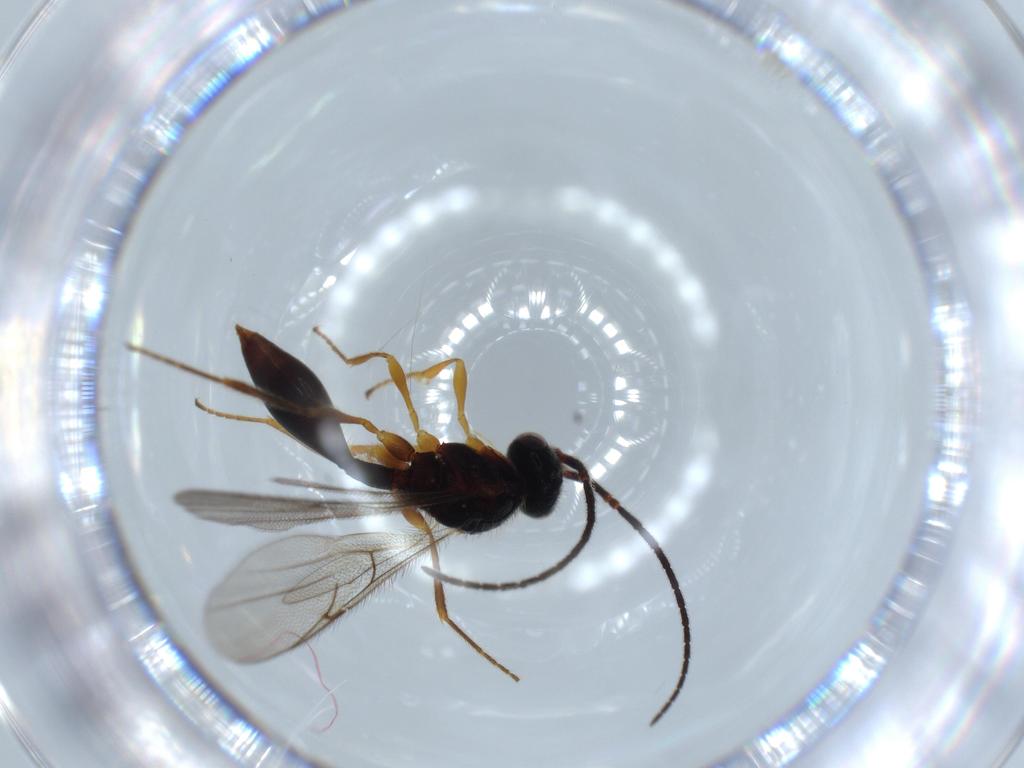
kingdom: Animalia
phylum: Arthropoda
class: Insecta
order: Hymenoptera
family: Diapriidae
